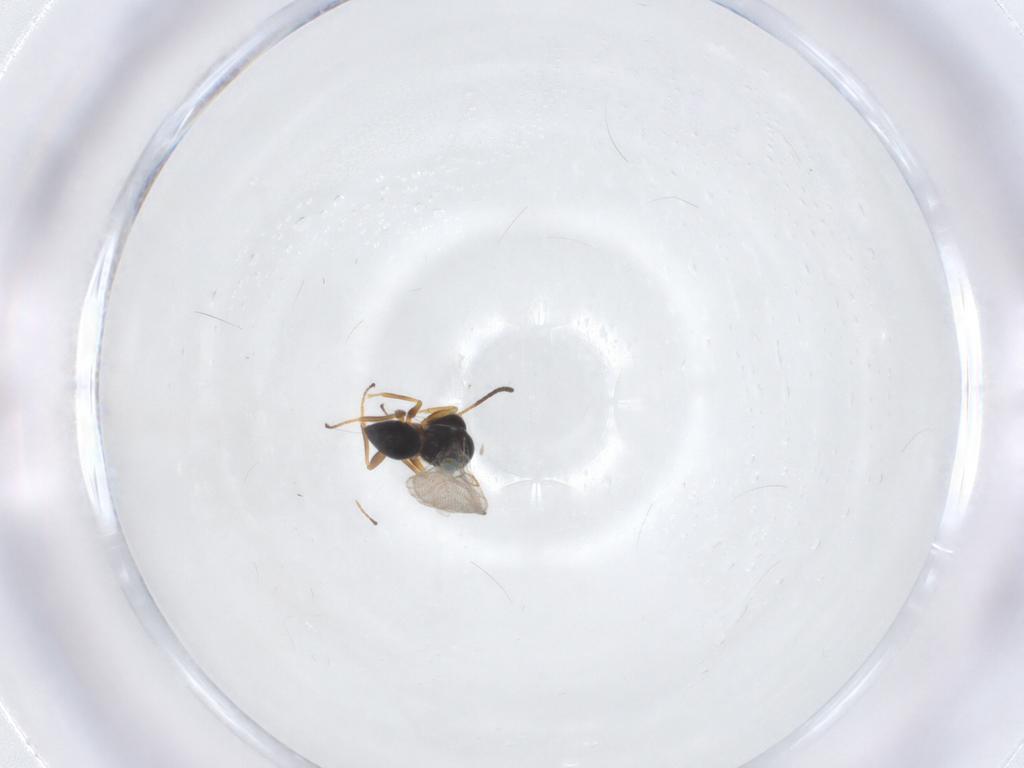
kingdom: Animalia
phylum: Arthropoda
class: Insecta
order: Hymenoptera
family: Figitidae
